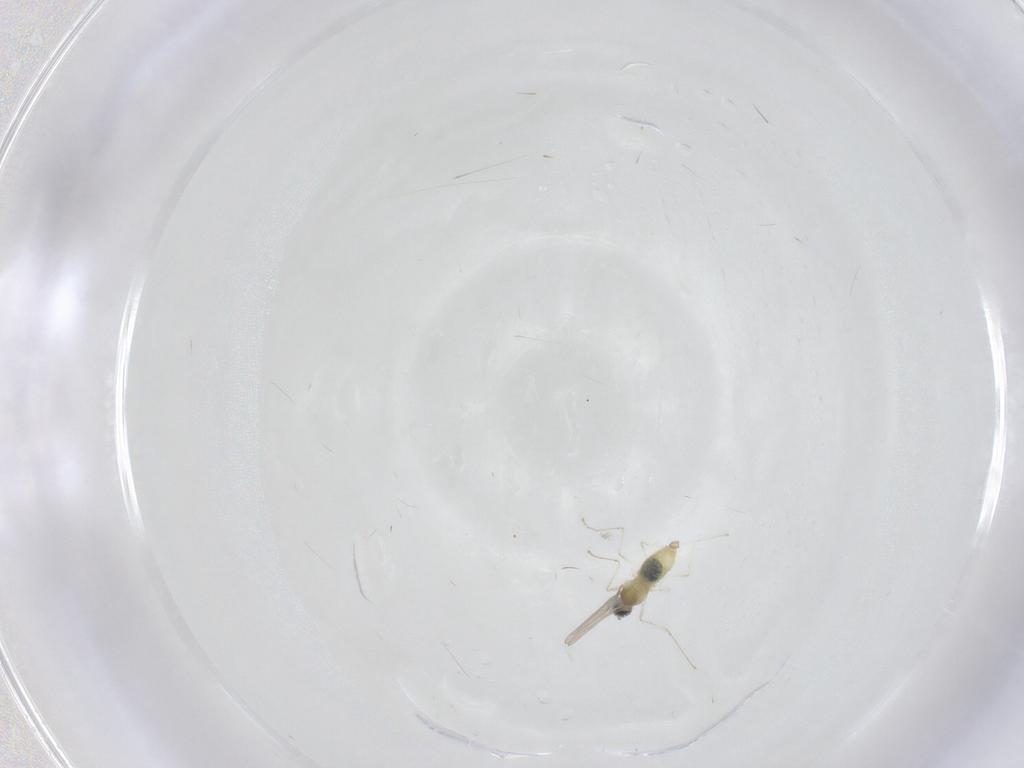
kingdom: Animalia
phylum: Arthropoda
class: Insecta
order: Diptera
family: Cecidomyiidae
